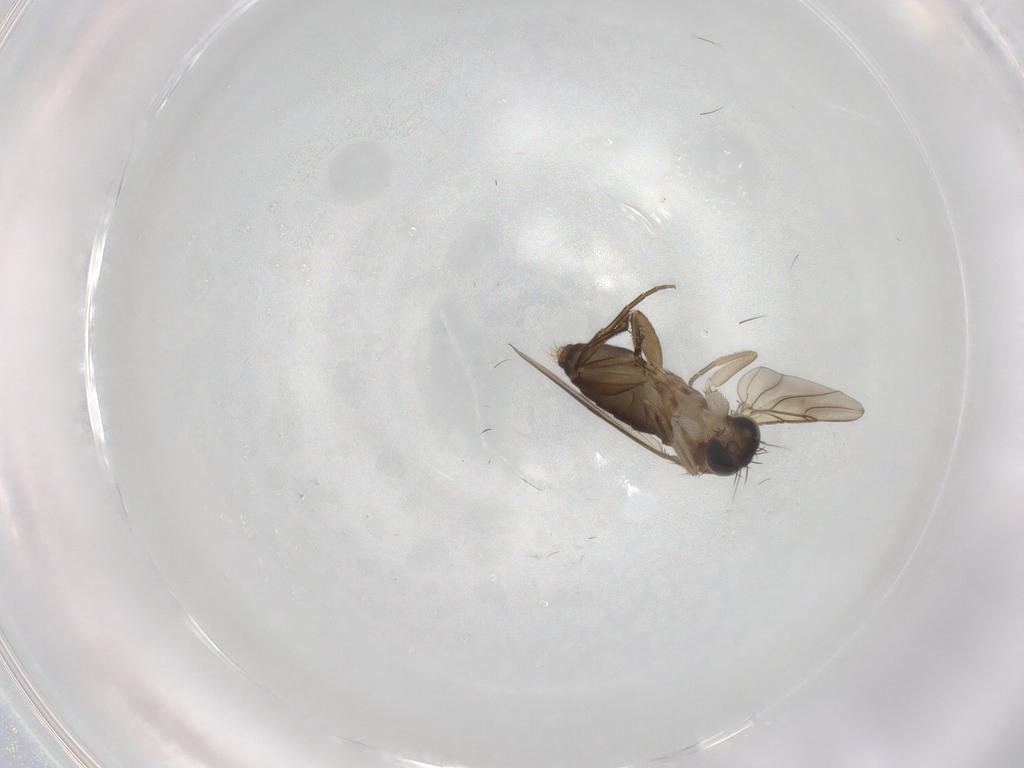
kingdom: Animalia
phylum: Arthropoda
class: Insecta
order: Diptera
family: Phoridae
